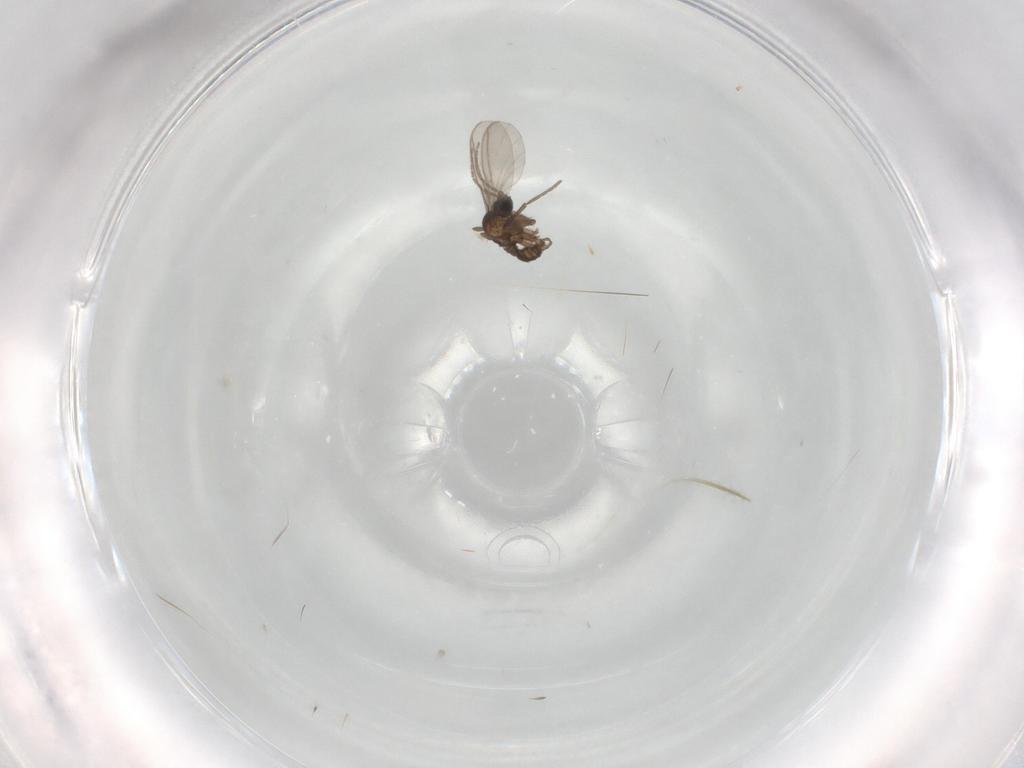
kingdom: Animalia
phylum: Arthropoda
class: Insecta
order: Diptera
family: Sciaridae
